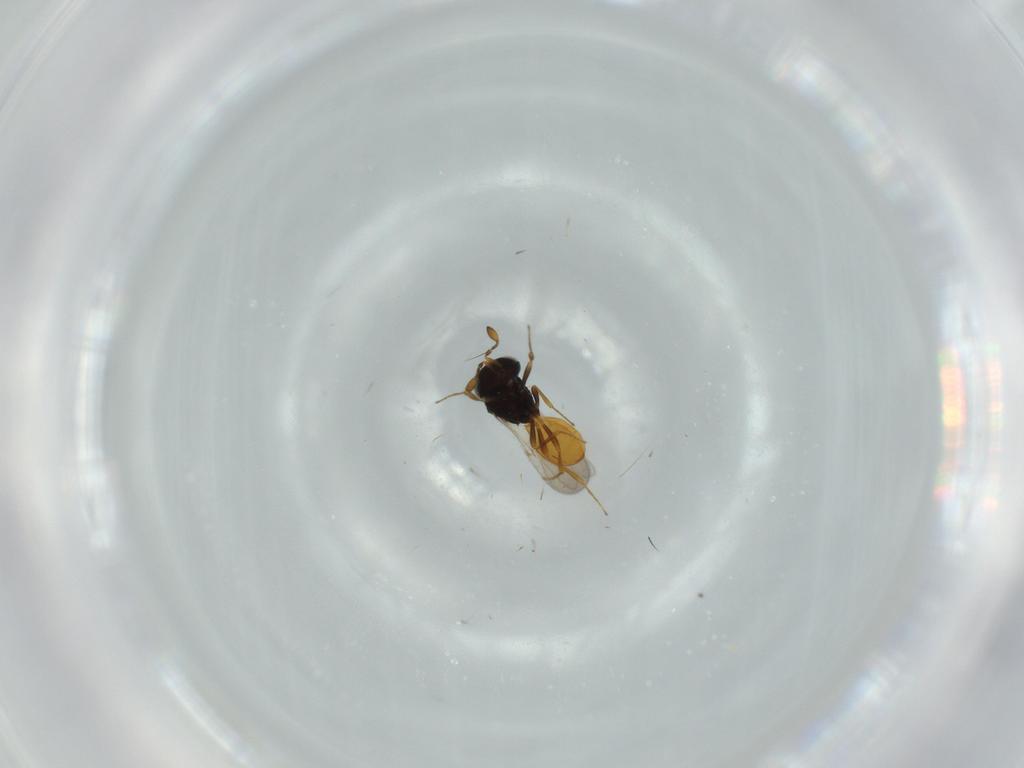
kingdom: Animalia
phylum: Arthropoda
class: Insecta
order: Hymenoptera
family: Scelionidae
